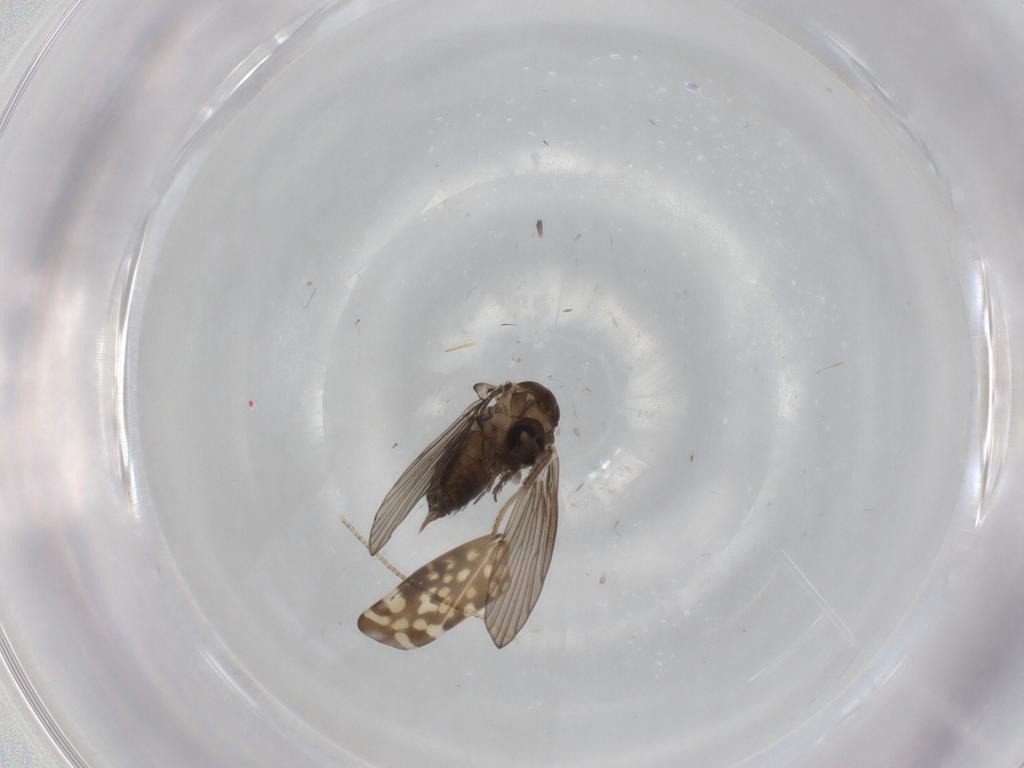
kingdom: Animalia
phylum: Arthropoda
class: Insecta
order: Diptera
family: Psychodidae
